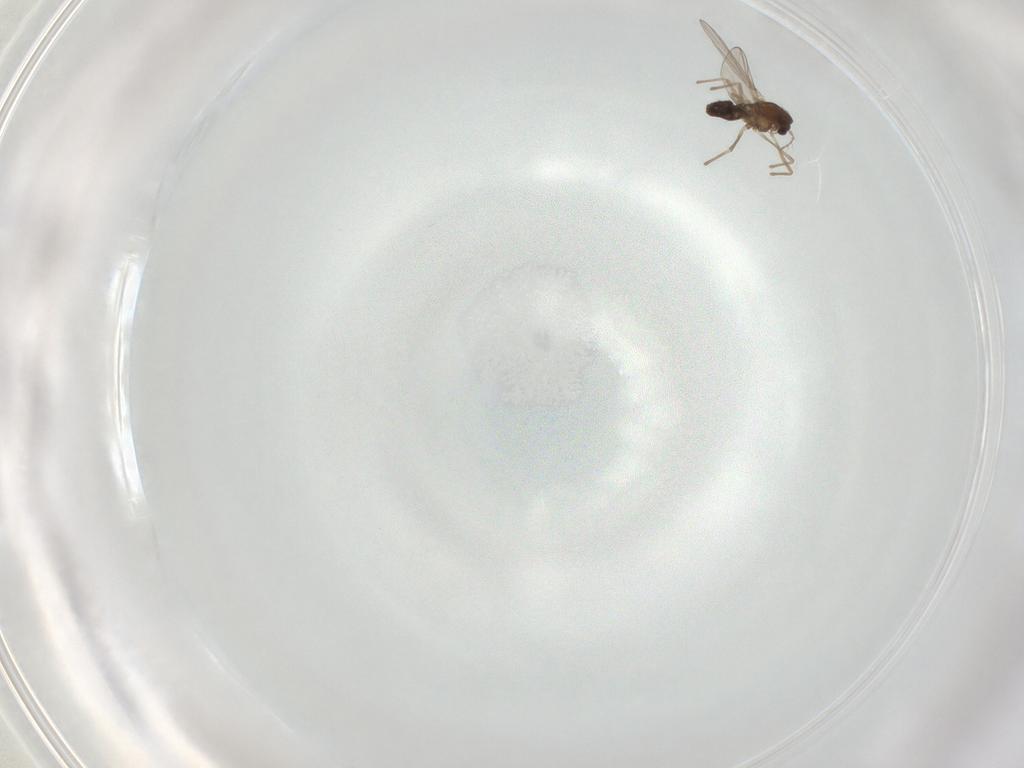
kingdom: Animalia
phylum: Arthropoda
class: Insecta
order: Diptera
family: Chironomidae
